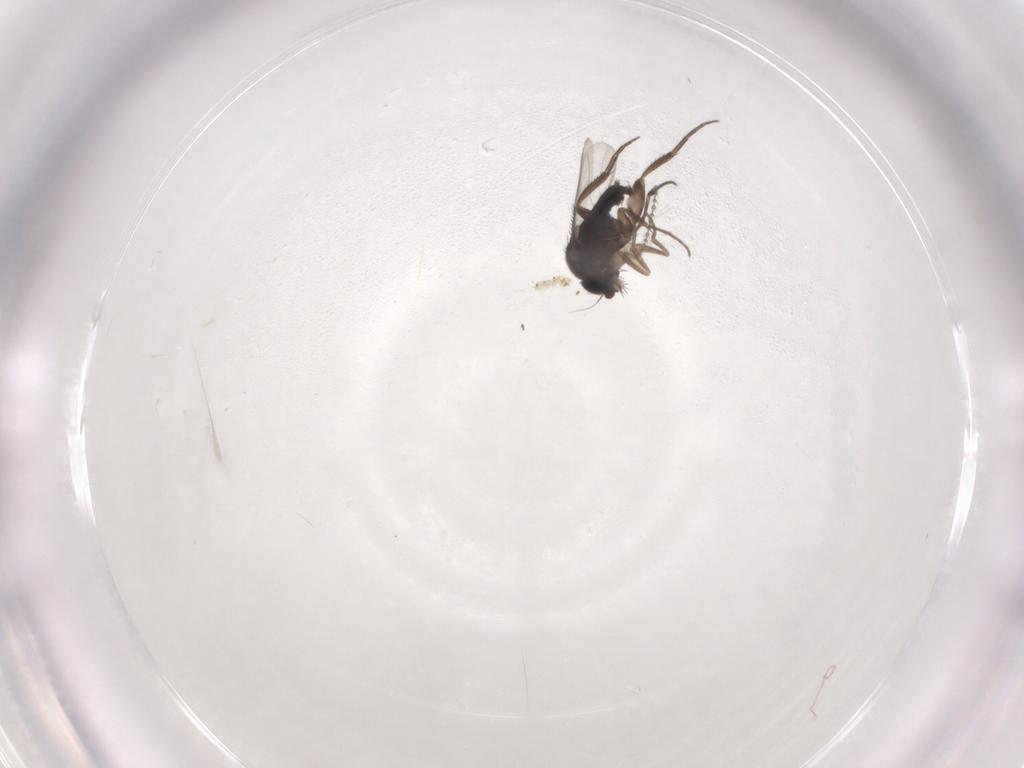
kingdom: Animalia
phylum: Arthropoda
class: Insecta
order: Diptera
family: Phoridae
